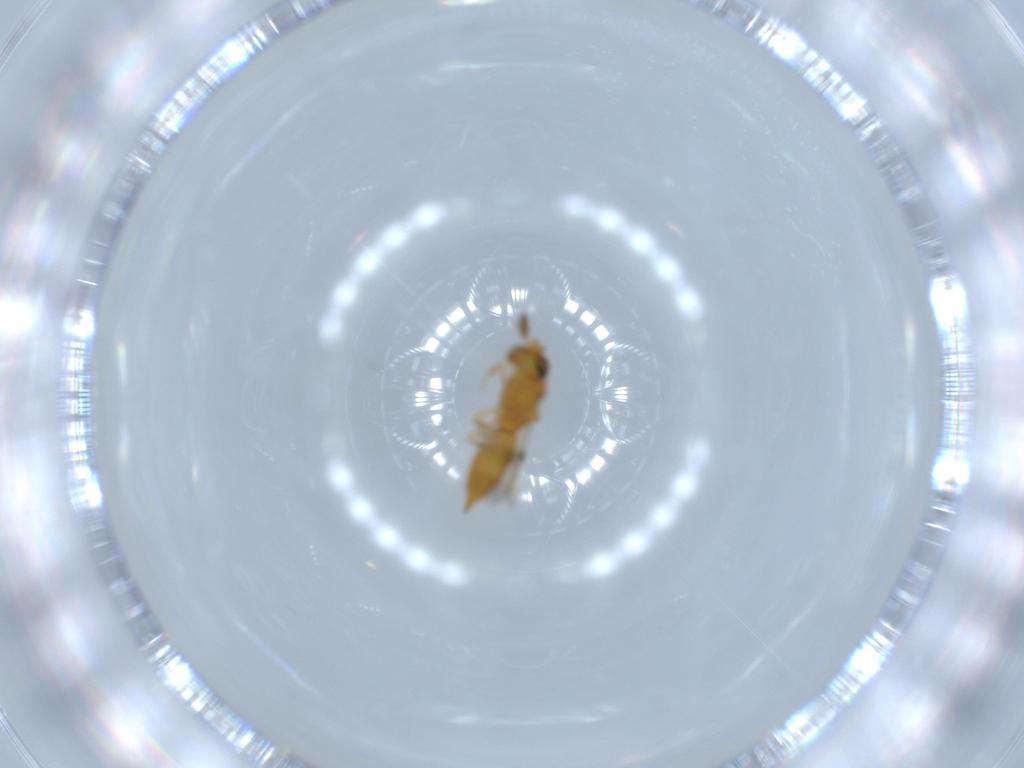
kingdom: Animalia
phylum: Arthropoda
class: Insecta
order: Hymenoptera
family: Scelionidae
